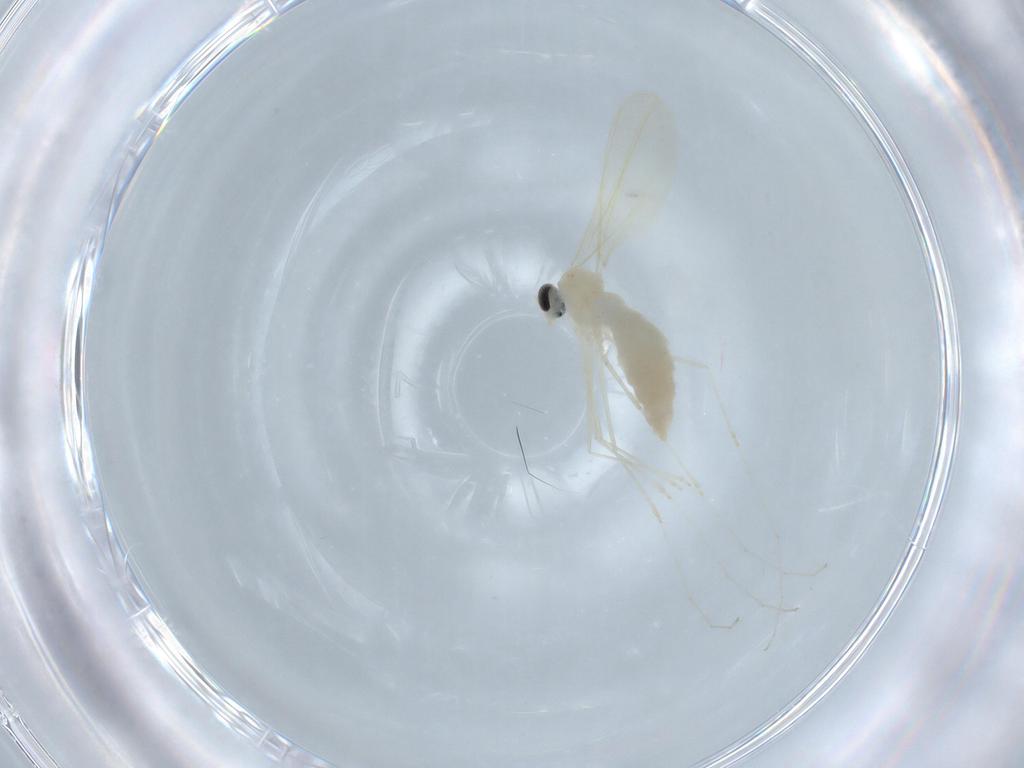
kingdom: Animalia
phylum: Arthropoda
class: Insecta
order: Diptera
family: Cecidomyiidae
